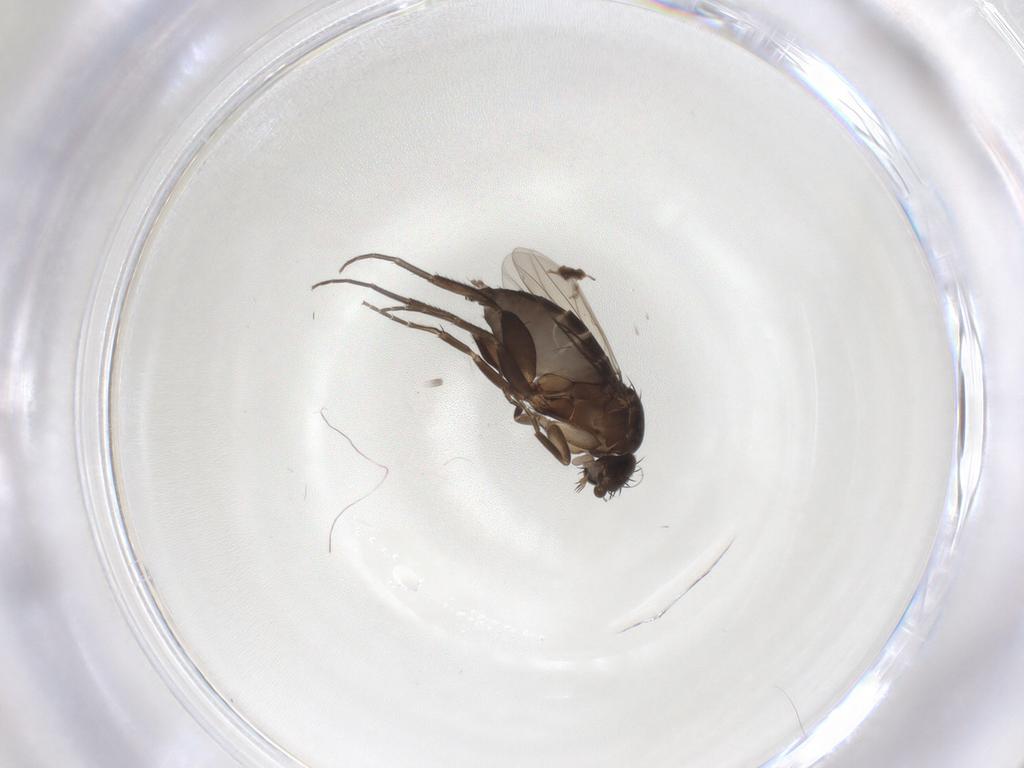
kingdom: Animalia
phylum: Arthropoda
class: Insecta
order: Diptera
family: Phoridae
